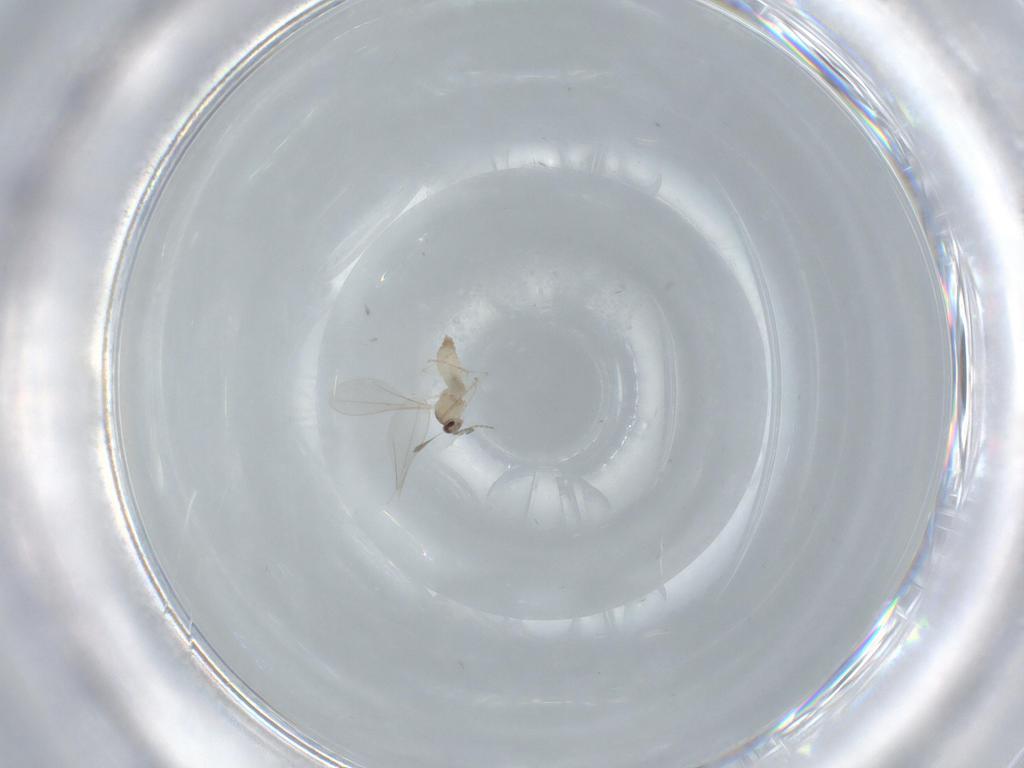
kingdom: Animalia
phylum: Arthropoda
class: Insecta
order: Diptera
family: Cecidomyiidae
